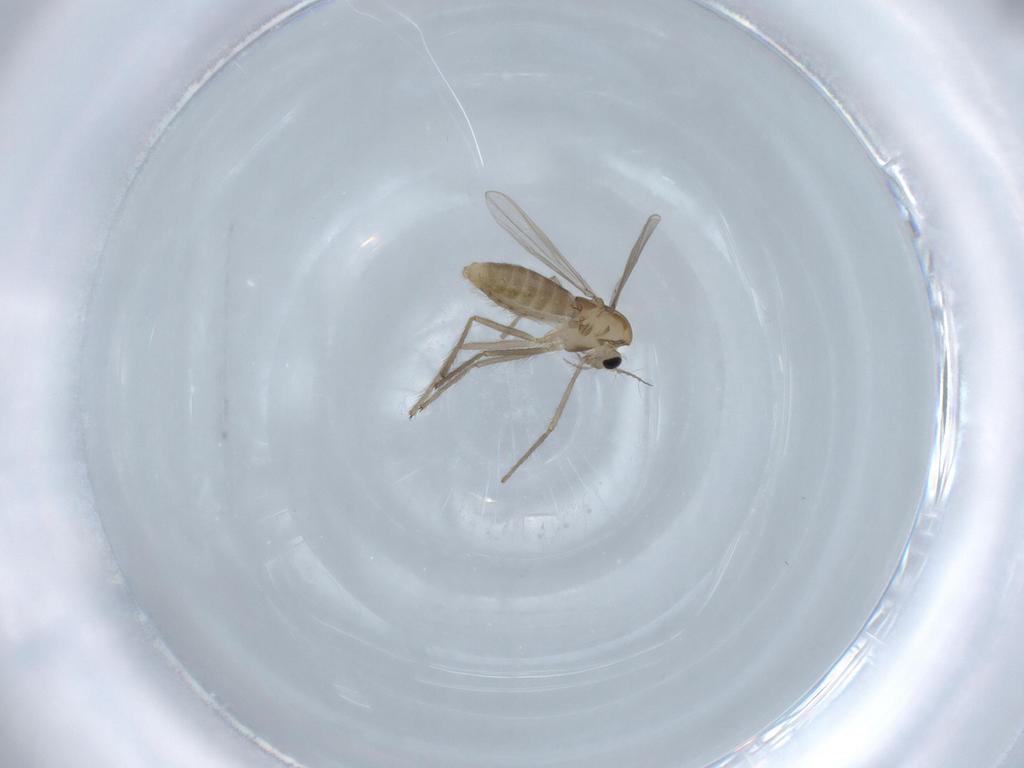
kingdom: Animalia
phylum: Arthropoda
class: Insecta
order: Diptera
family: Chironomidae
